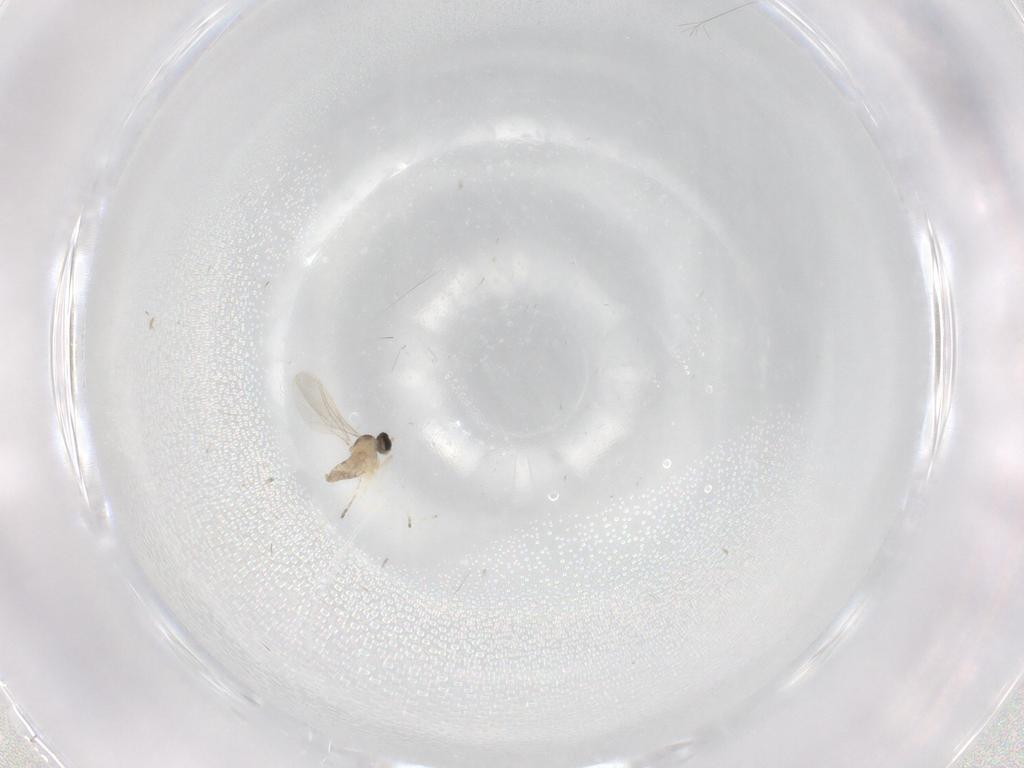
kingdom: Animalia
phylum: Arthropoda
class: Insecta
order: Diptera
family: Cecidomyiidae
